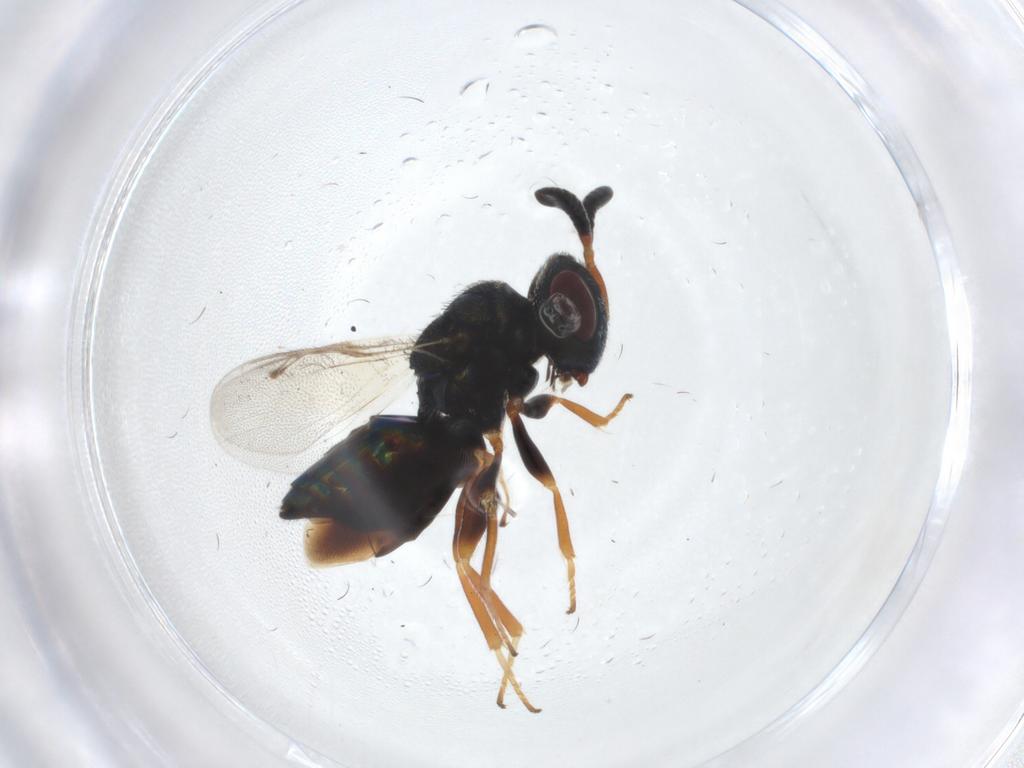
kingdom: Animalia
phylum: Arthropoda
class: Insecta
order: Hymenoptera
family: Pteromalidae
